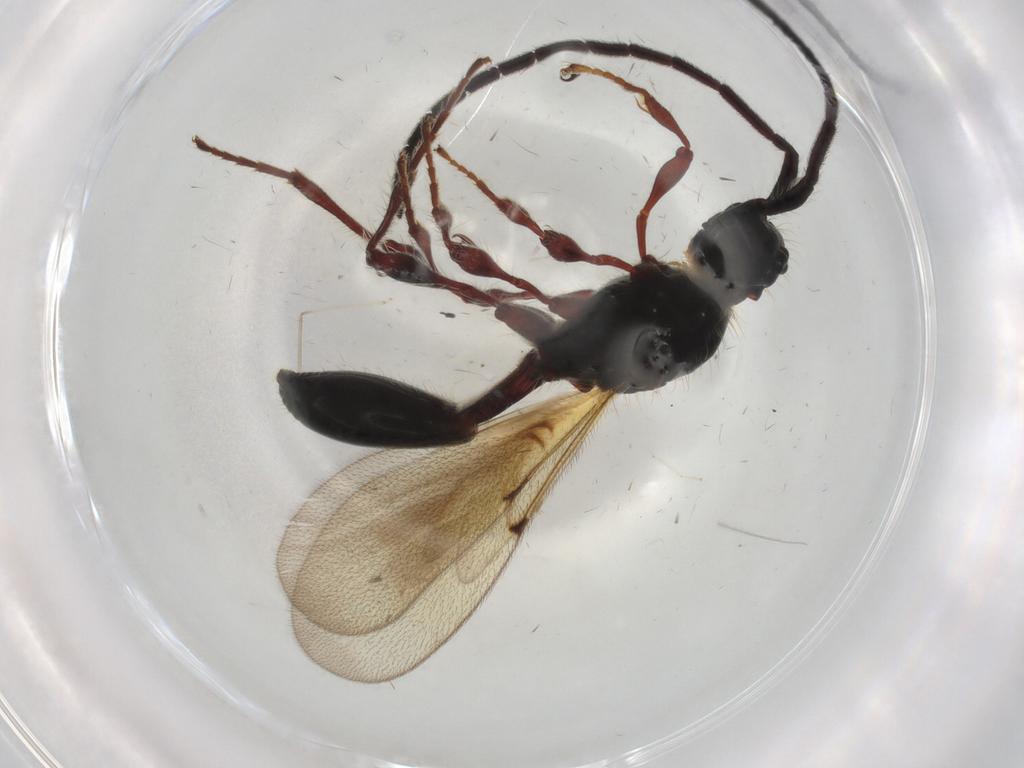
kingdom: Animalia
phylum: Arthropoda
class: Insecta
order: Hymenoptera
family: Diapriidae
